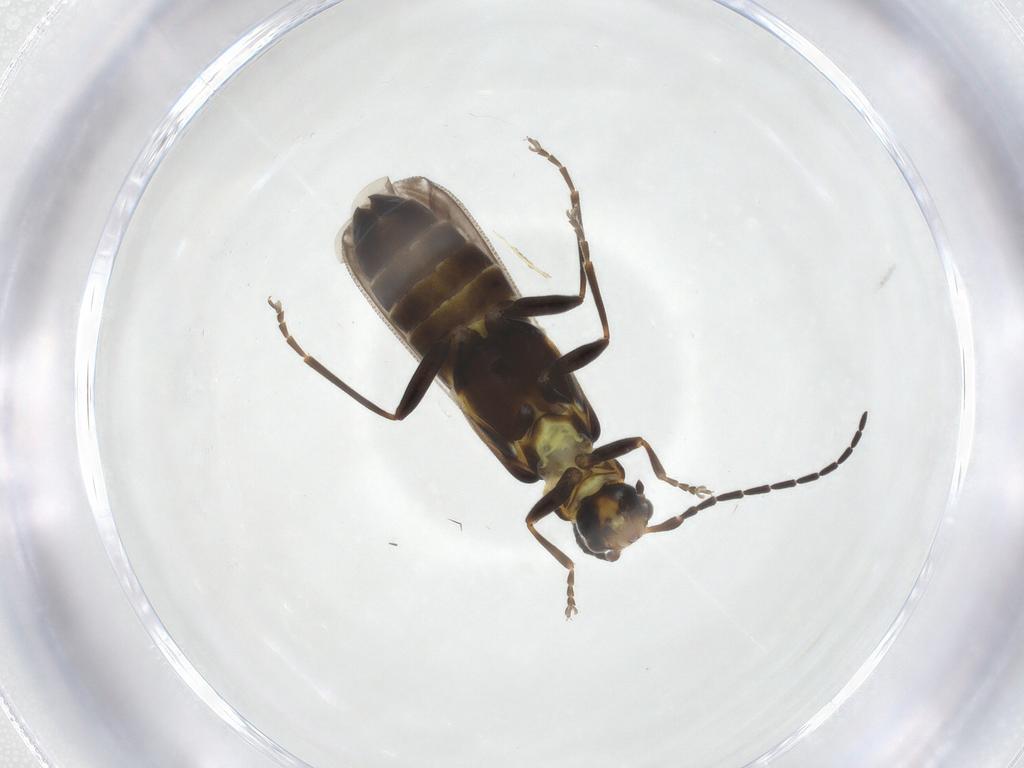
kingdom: Animalia
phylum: Arthropoda
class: Insecta
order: Coleoptera
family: Cantharidae
